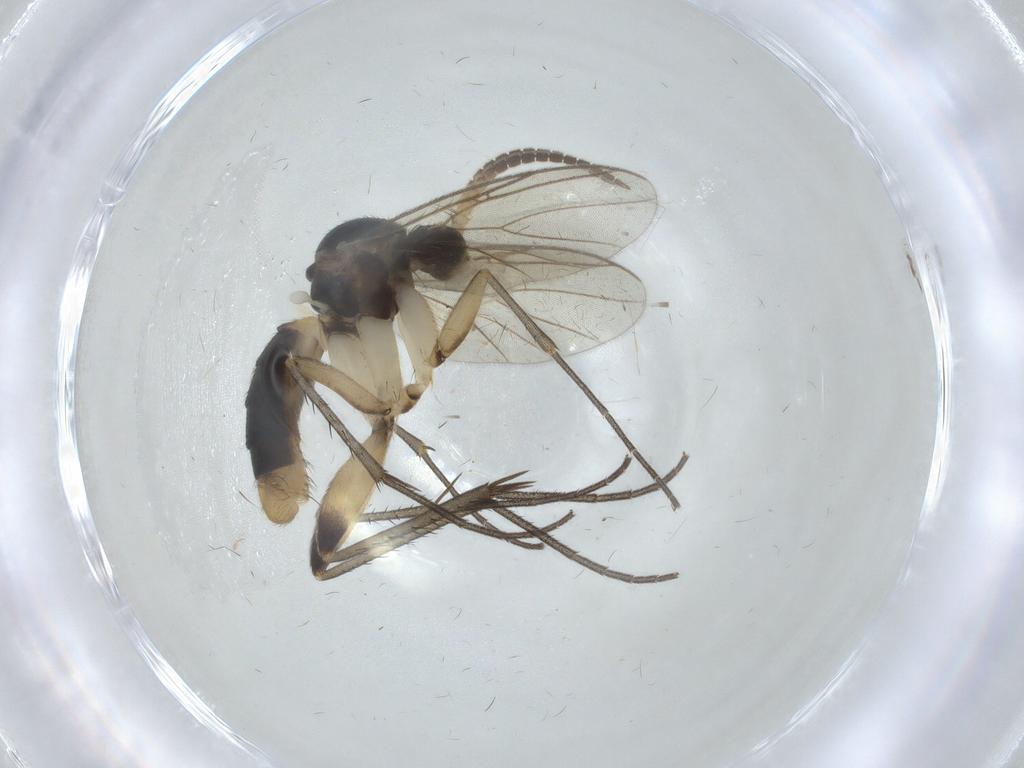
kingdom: Animalia
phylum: Arthropoda
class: Insecta
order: Diptera
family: Mycetophilidae
